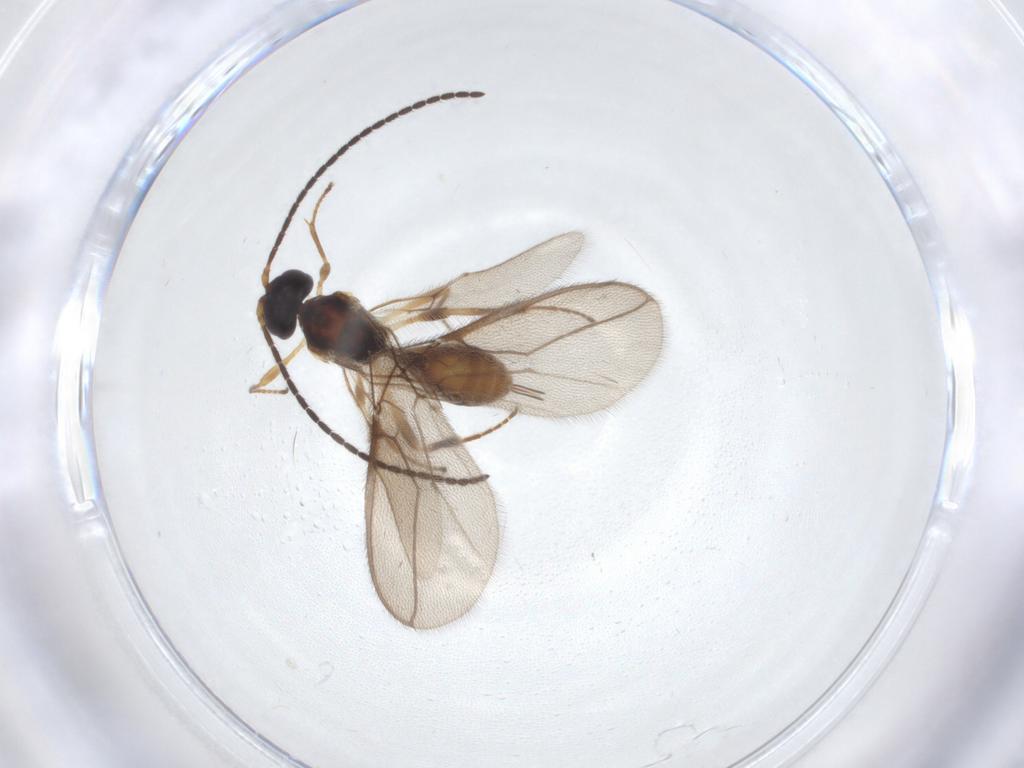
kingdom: Animalia
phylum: Arthropoda
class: Insecta
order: Hymenoptera
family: Braconidae
